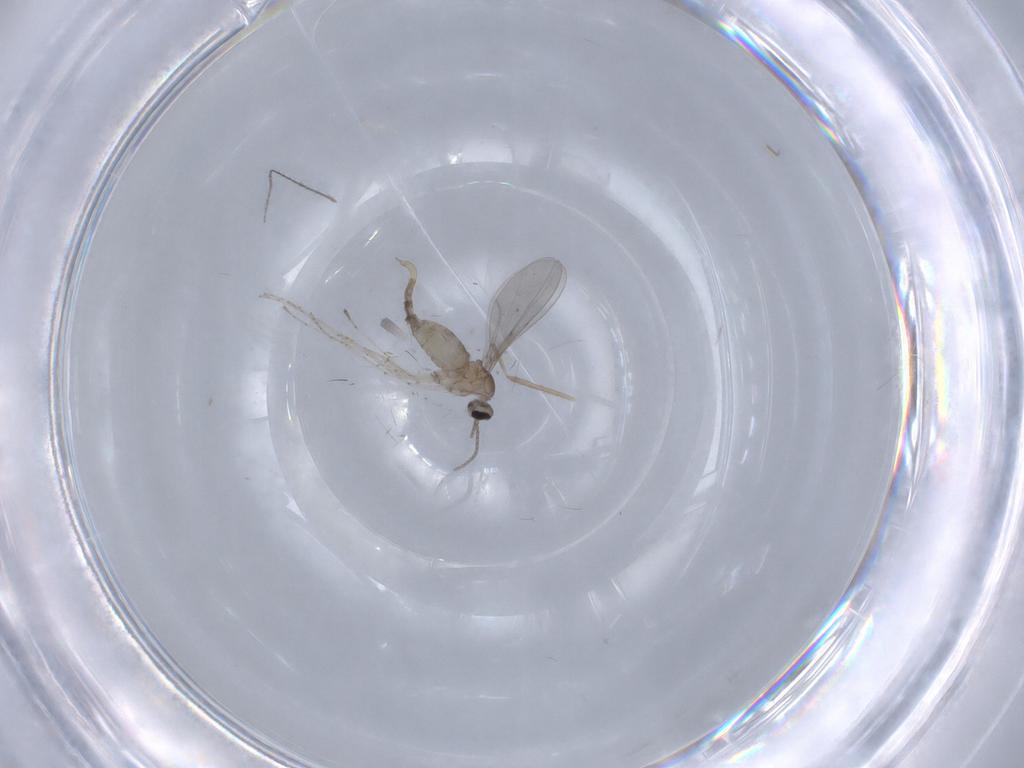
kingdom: Animalia
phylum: Arthropoda
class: Insecta
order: Diptera
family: Cecidomyiidae
